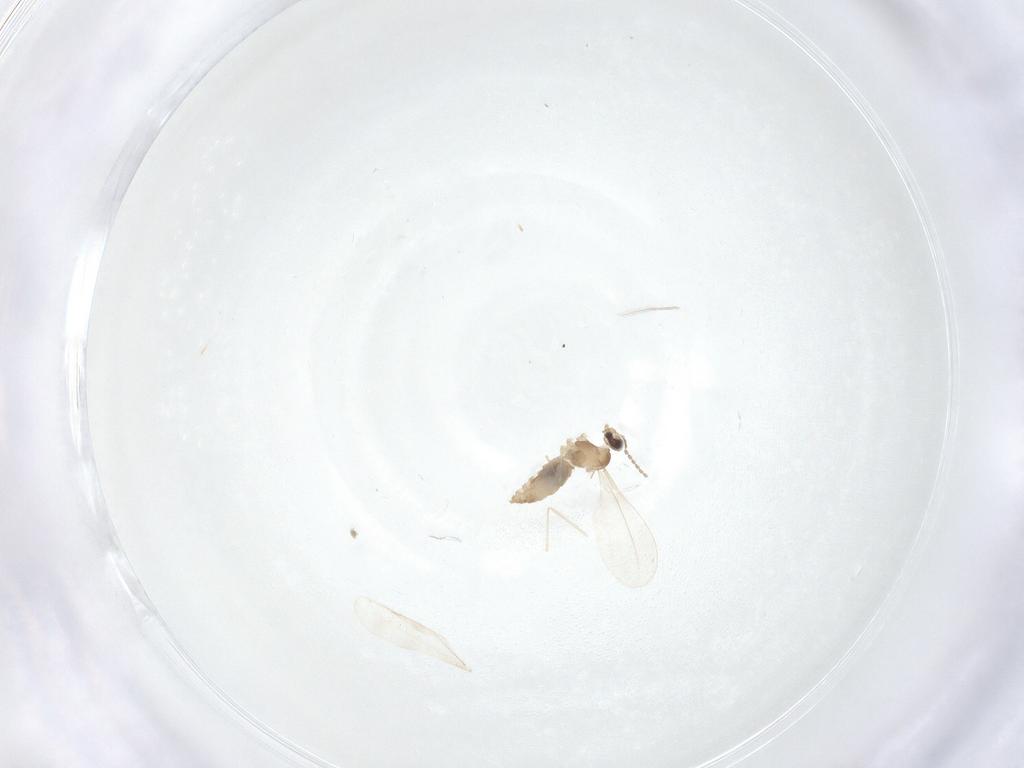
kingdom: Animalia
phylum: Arthropoda
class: Insecta
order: Diptera
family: Cecidomyiidae
